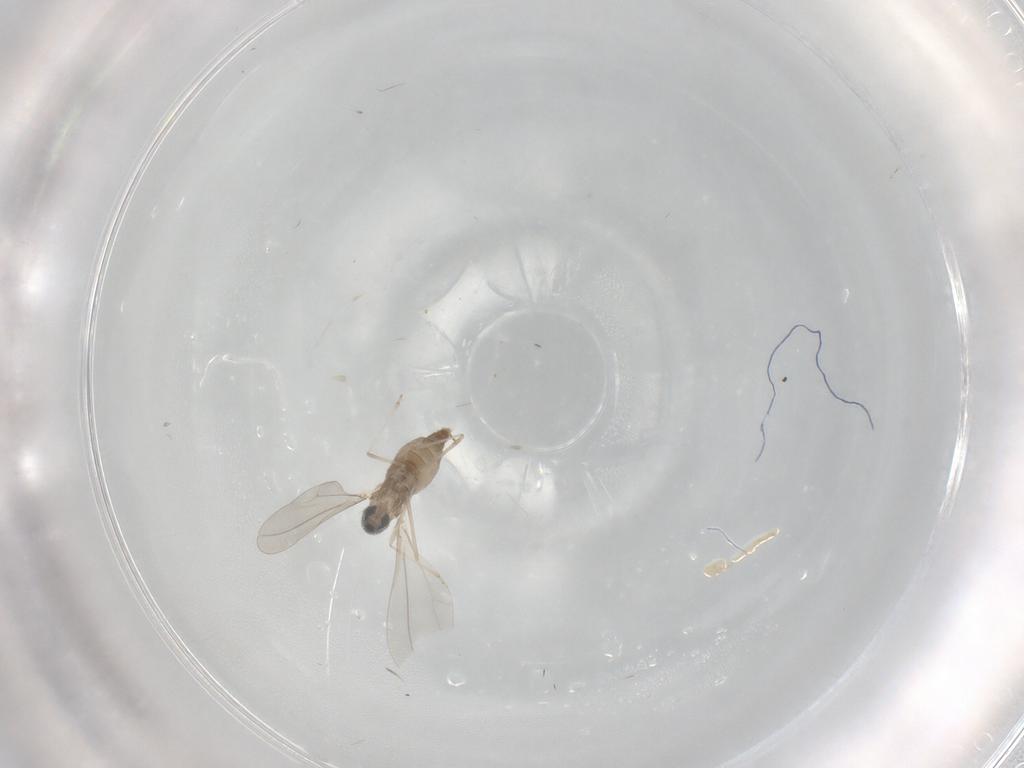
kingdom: Animalia
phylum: Arthropoda
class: Insecta
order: Diptera
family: Cecidomyiidae
